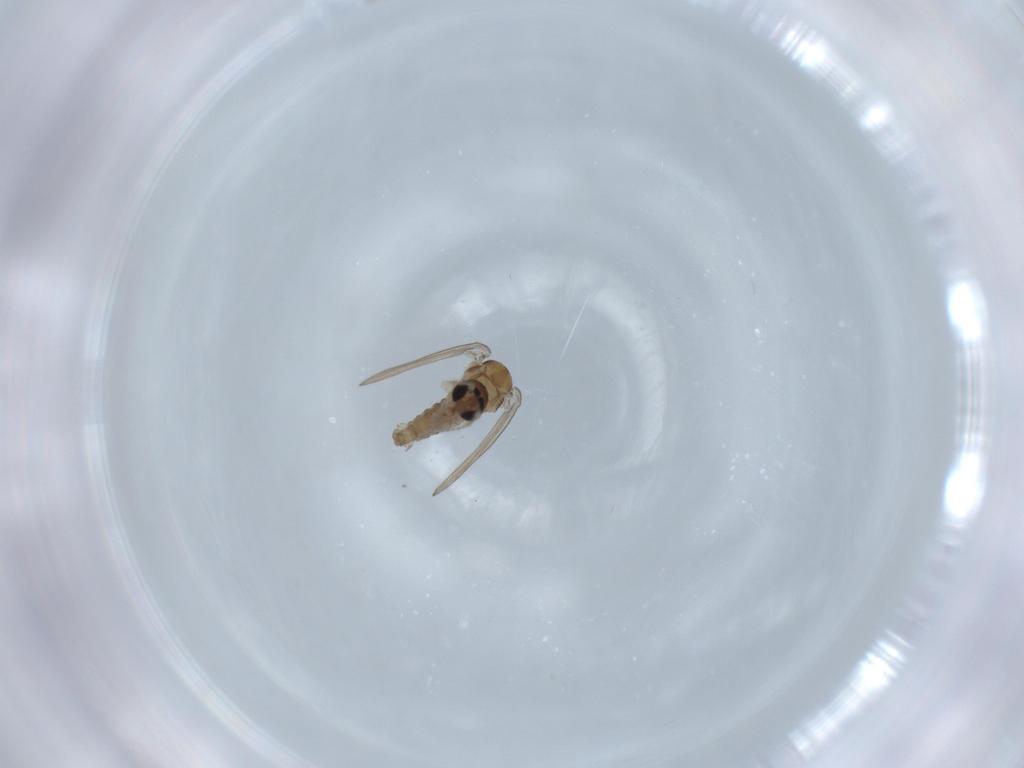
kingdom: Animalia
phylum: Arthropoda
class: Insecta
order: Diptera
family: Psychodidae
